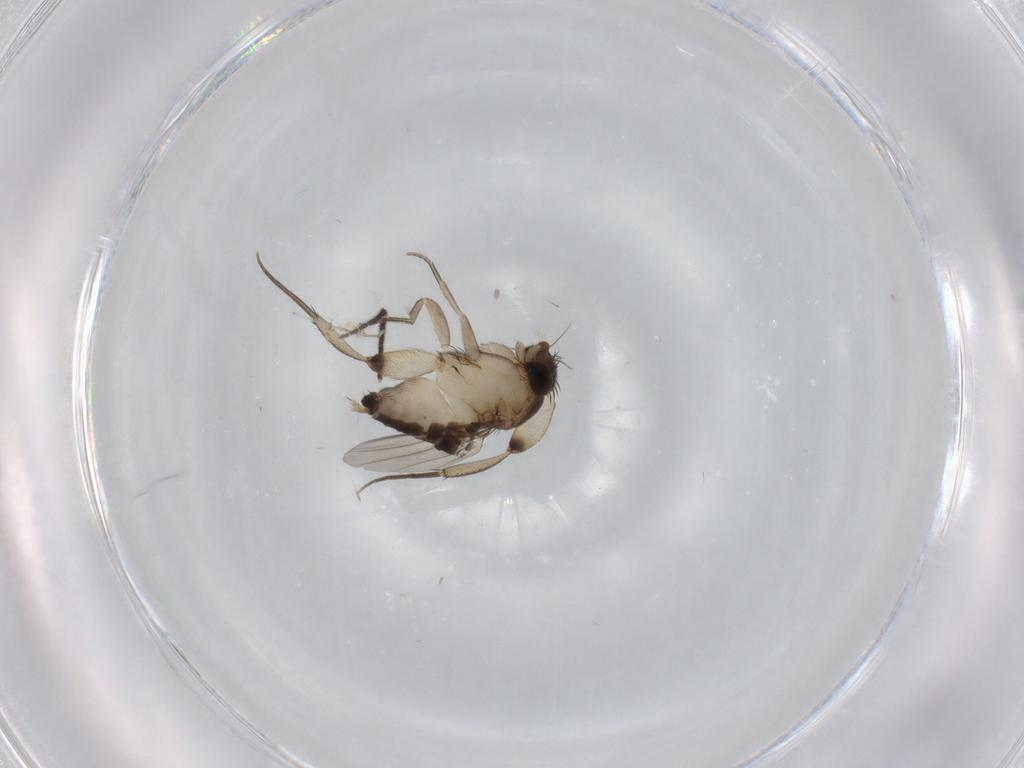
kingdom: Animalia
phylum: Arthropoda
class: Insecta
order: Diptera
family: Phoridae
